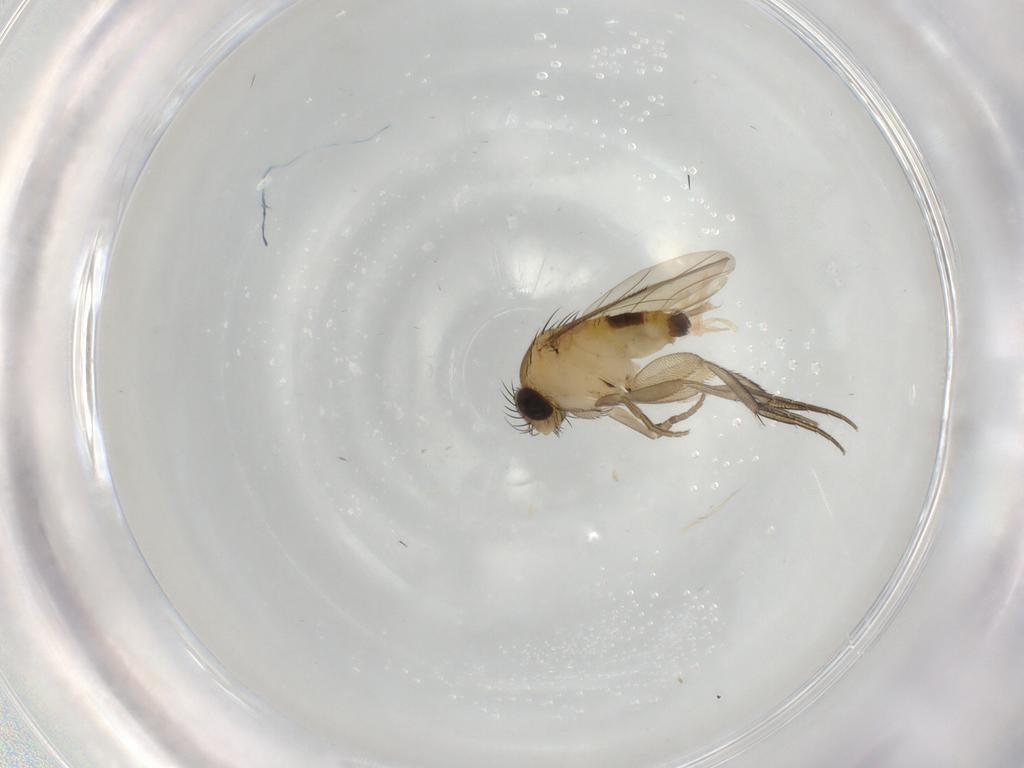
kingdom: Animalia
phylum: Arthropoda
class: Insecta
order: Diptera
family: Phoridae
